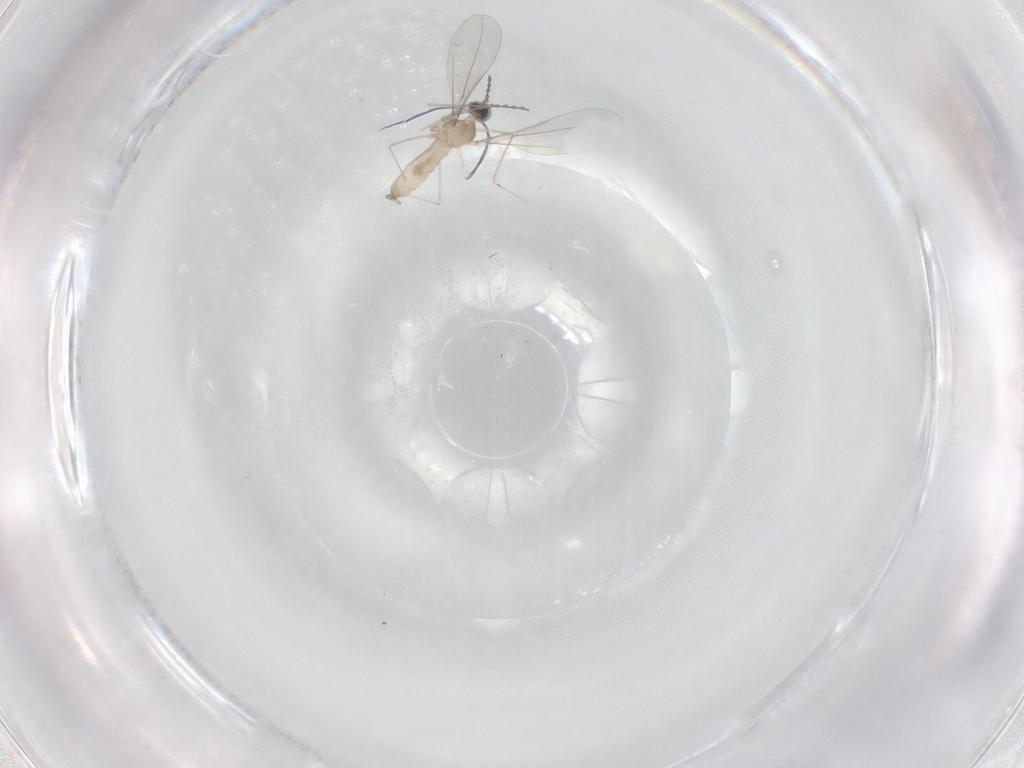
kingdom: Animalia
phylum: Arthropoda
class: Insecta
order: Diptera
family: Cecidomyiidae
